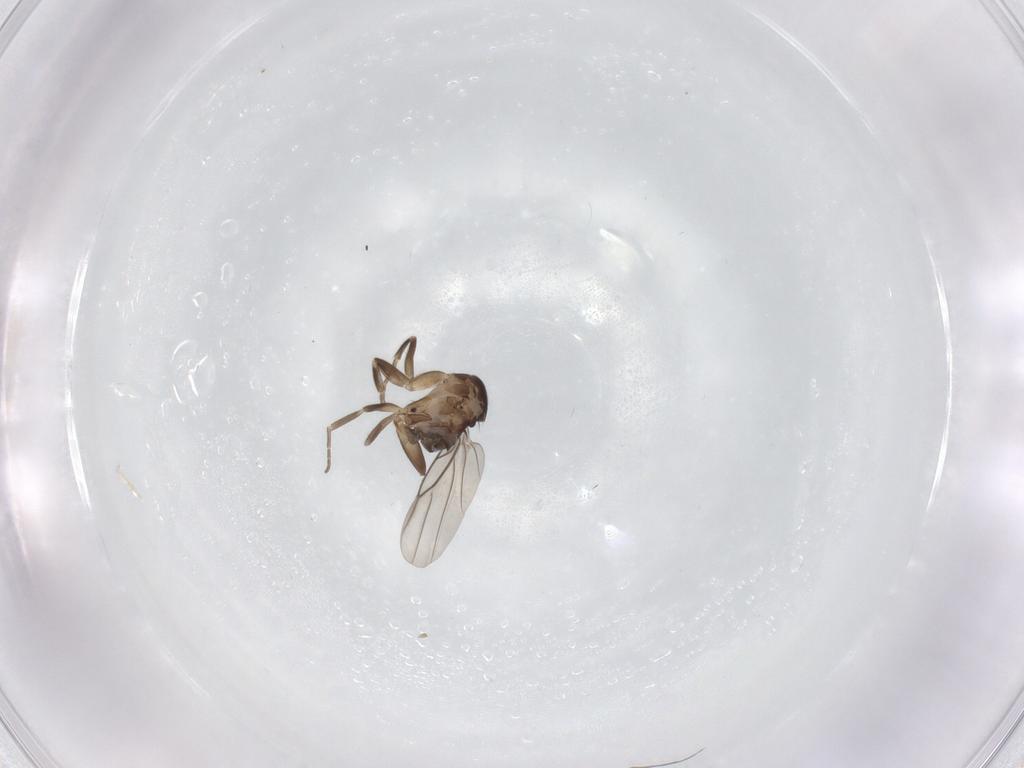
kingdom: Animalia
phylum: Arthropoda
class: Insecta
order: Diptera
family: Phoridae
